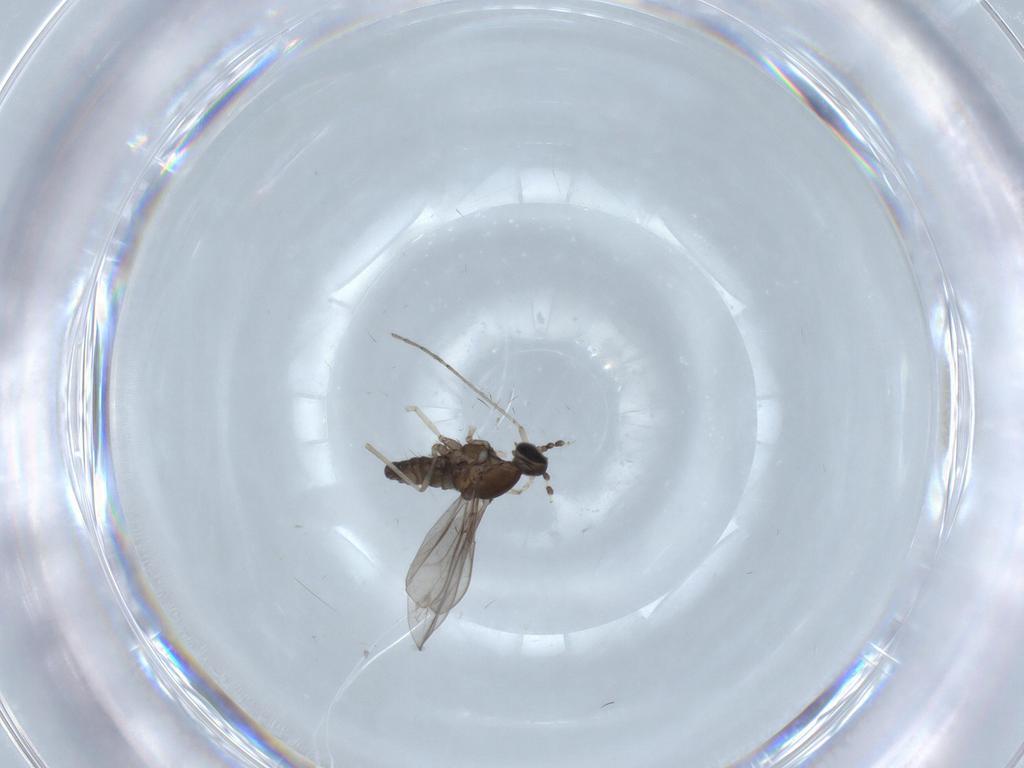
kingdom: Animalia
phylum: Arthropoda
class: Insecta
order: Diptera
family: Cecidomyiidae
